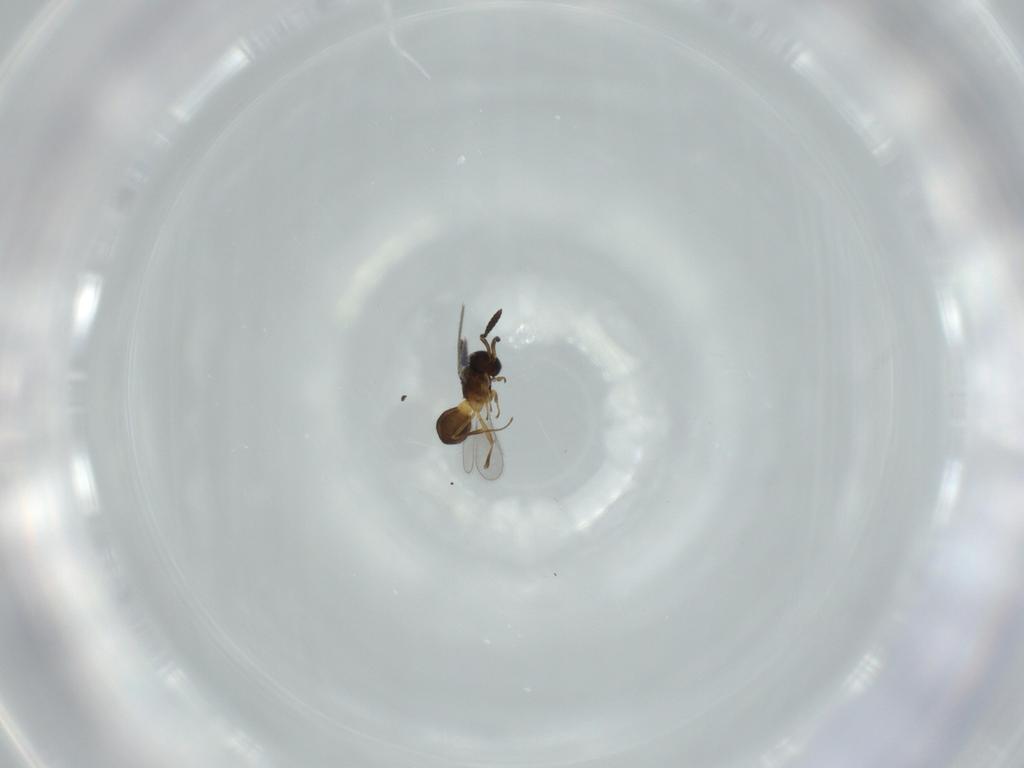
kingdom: Animalia
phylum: Arthropoda
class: Insecta
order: Hymenoptera
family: Scelionidae
